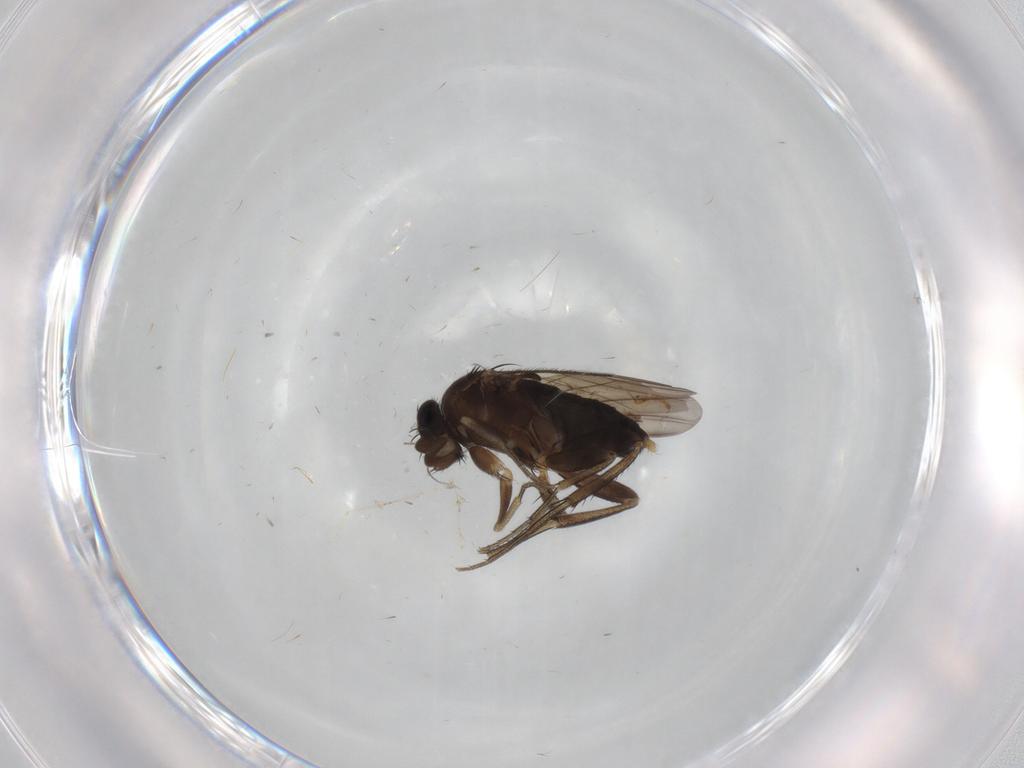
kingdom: Animalia
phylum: Arthropoda
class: Insecta
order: Diptera
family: Phoridae
